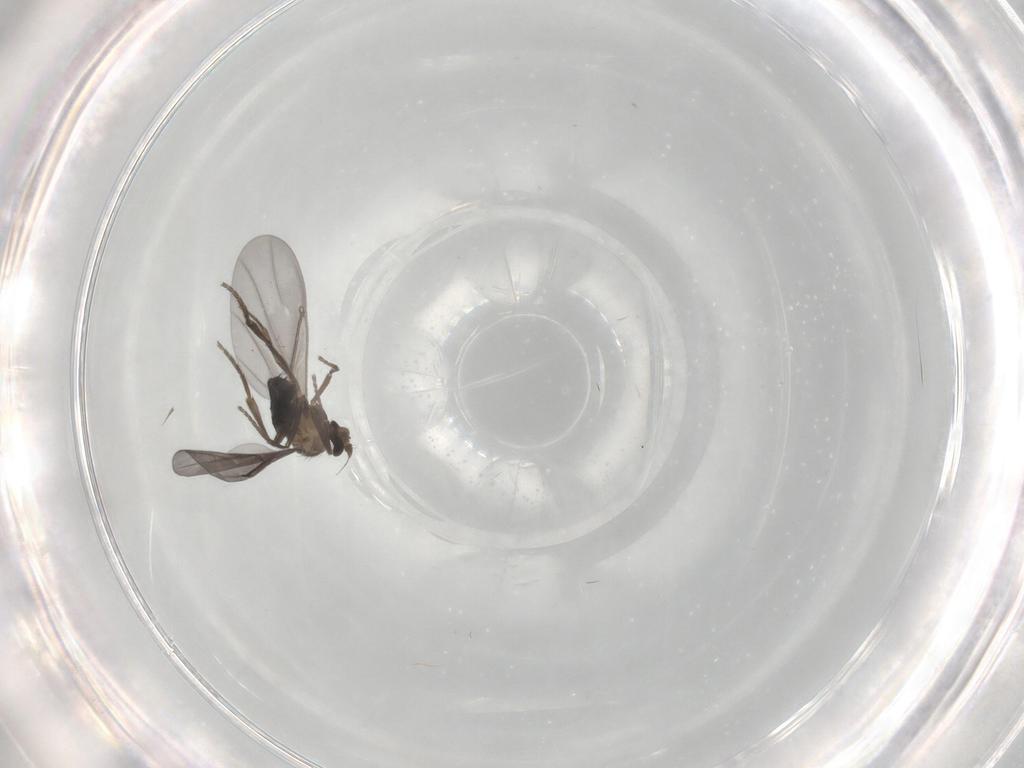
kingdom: Animalia
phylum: Arthropoda
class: Insecta
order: Diptera
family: Phoridae
